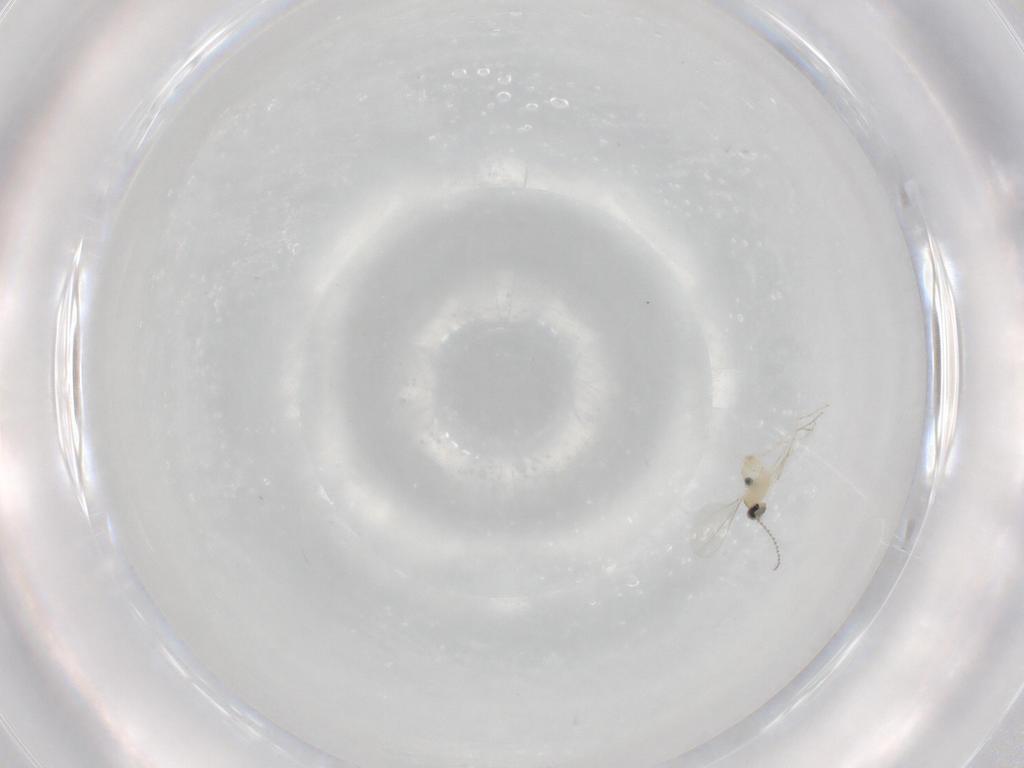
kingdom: Animalia
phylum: Arthropoda
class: Insecta
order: Diptera
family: Cecidomyiidae
